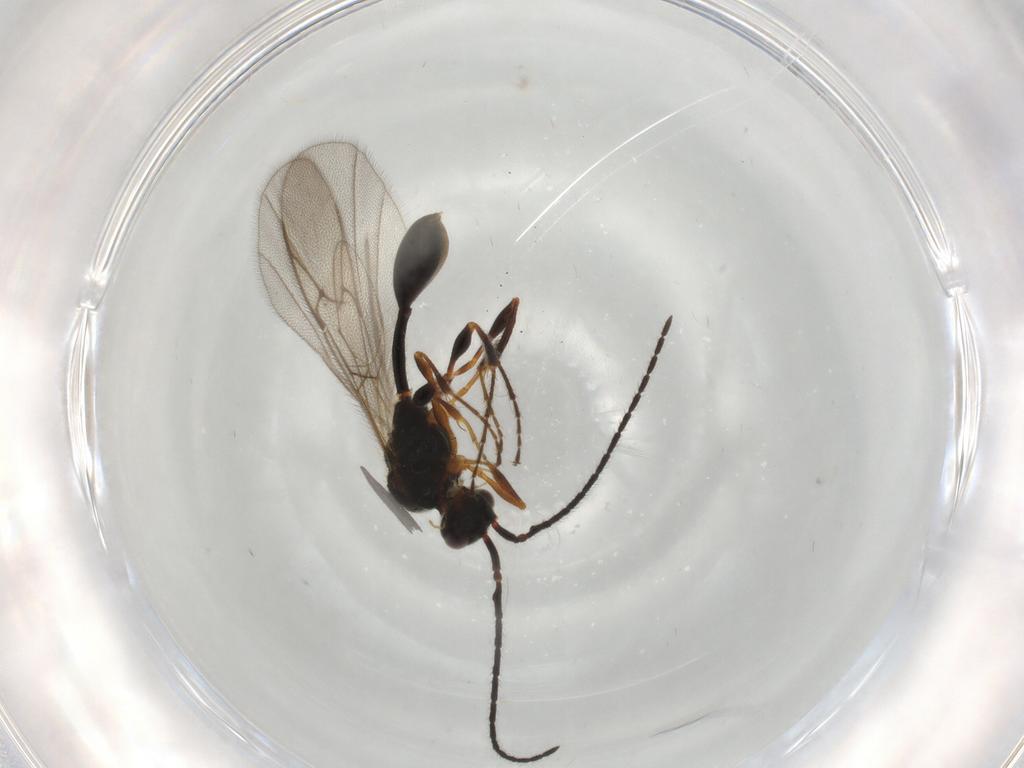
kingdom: Animalia
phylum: Arthropoda
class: Insecta
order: Hymenoptera
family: Diapriidae
